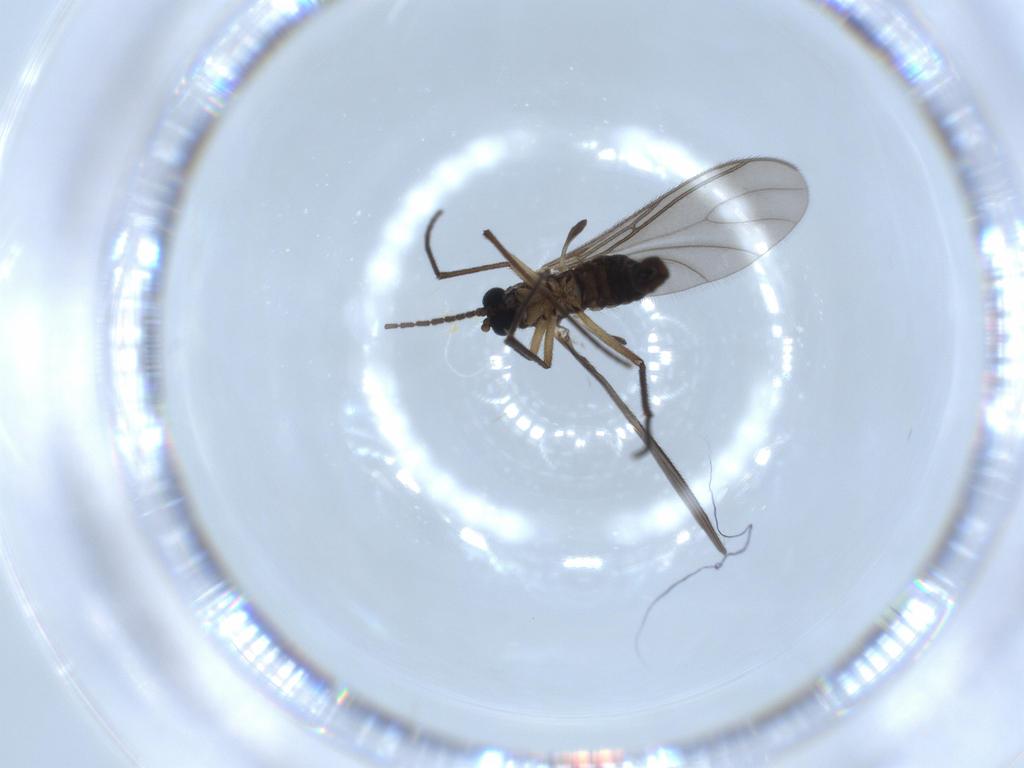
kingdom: Animalia
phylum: Arthropoda
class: Insecta
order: Diptera
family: Sciaridae
